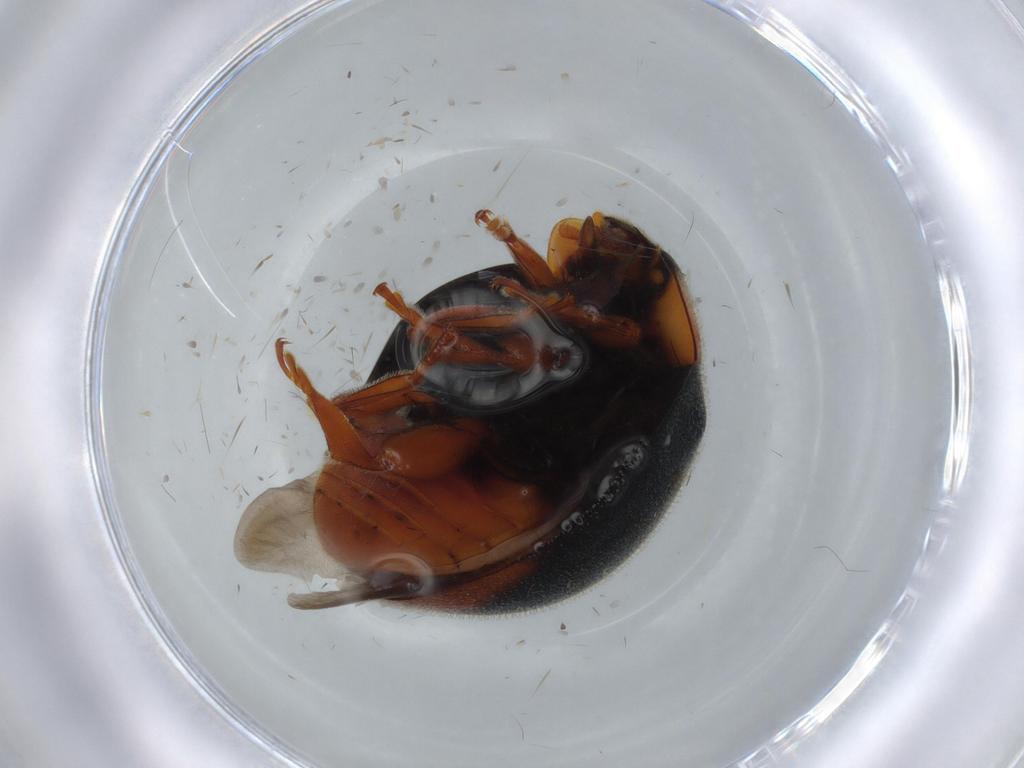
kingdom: Animalia
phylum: Arthropoda
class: Insecta
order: Coleoptera
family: Coccinellidae
